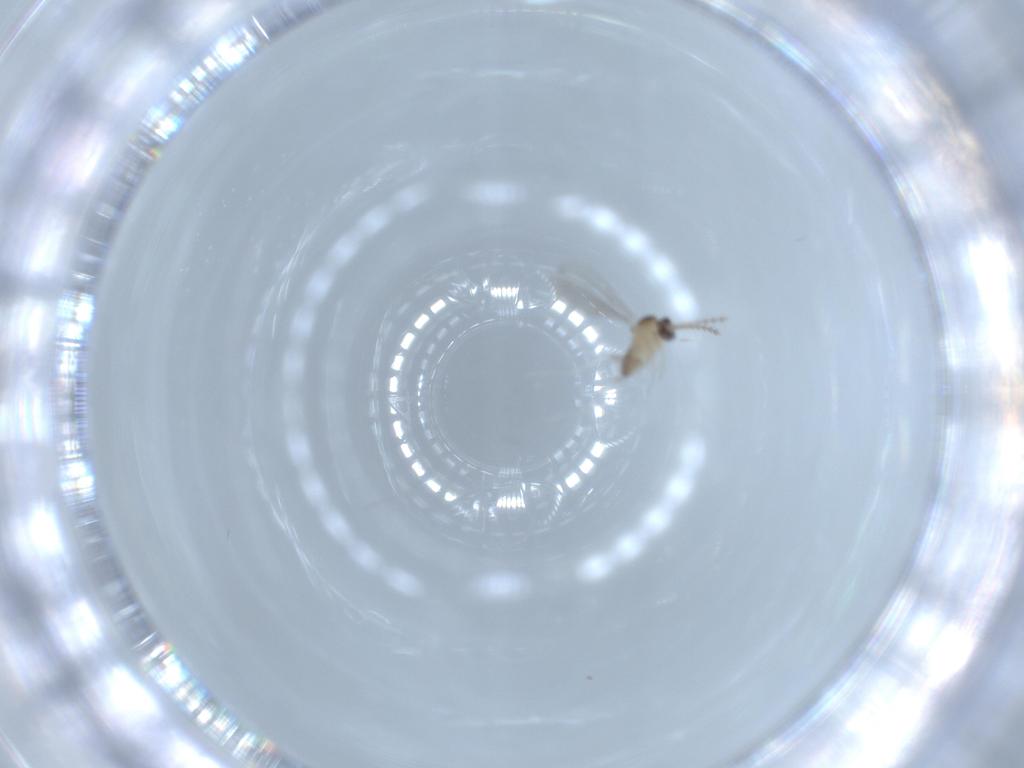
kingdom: Animalia
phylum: Arthropoda
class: Insecta
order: Diptera
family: Cecidomyiidae
